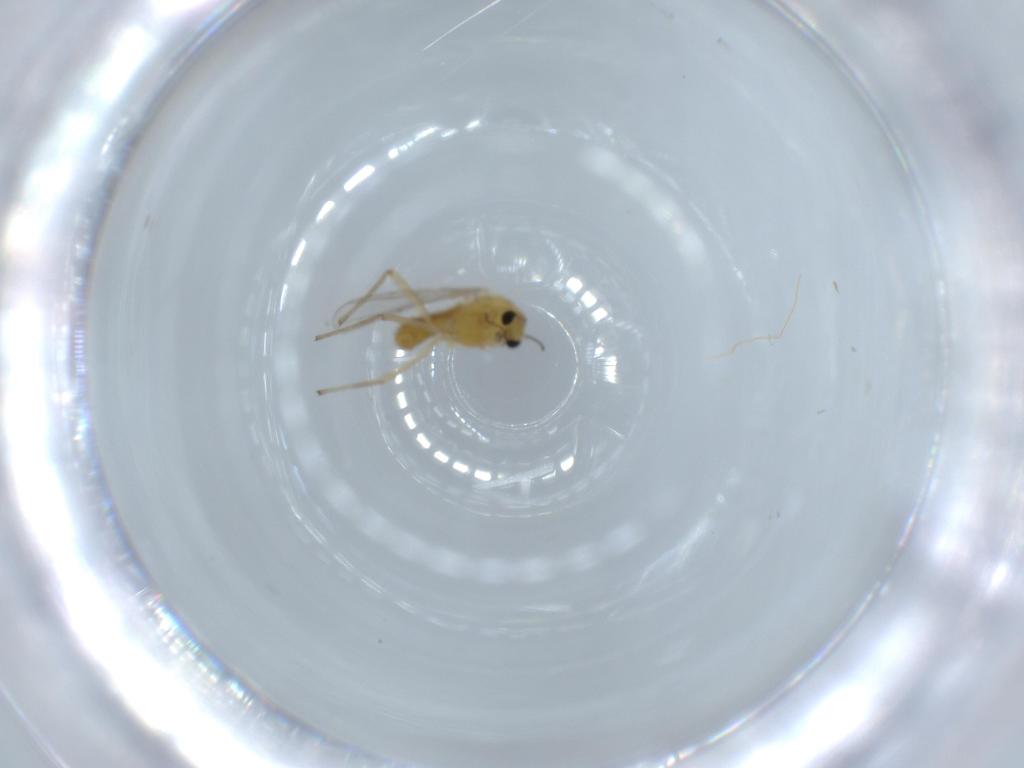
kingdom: Animalia
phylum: Arthropoda
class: Insecta
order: Diptera
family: Chironomidae
